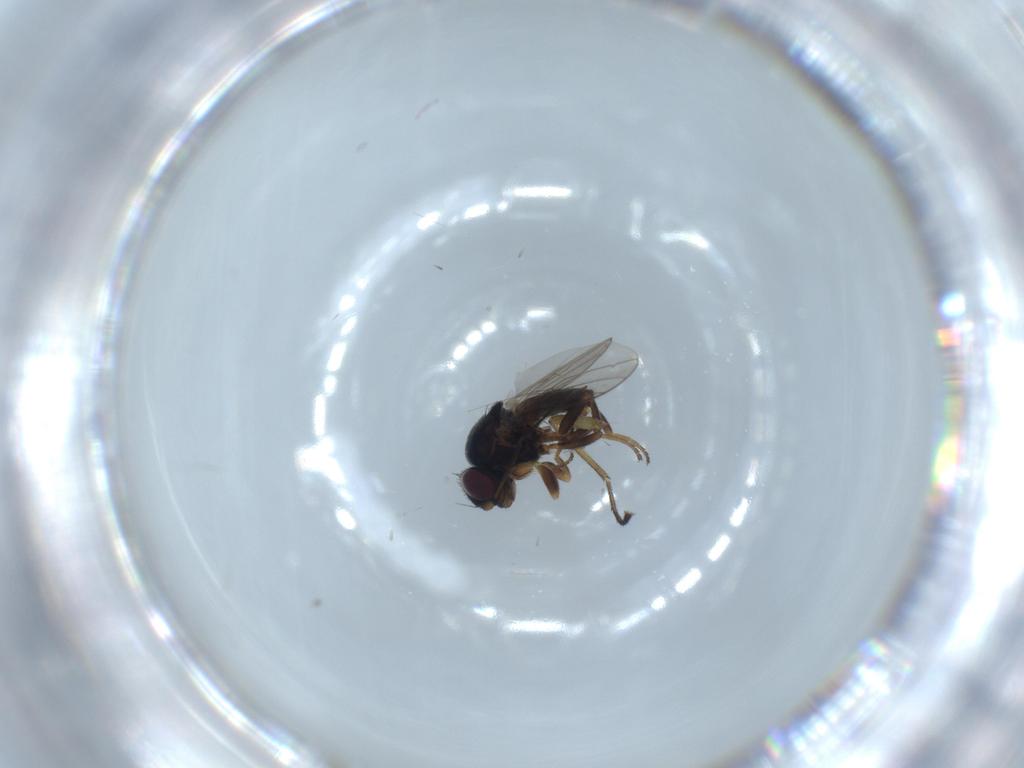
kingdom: Animalia
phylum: Arthropoda
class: Insecta
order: Diptera
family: Chloropidae
